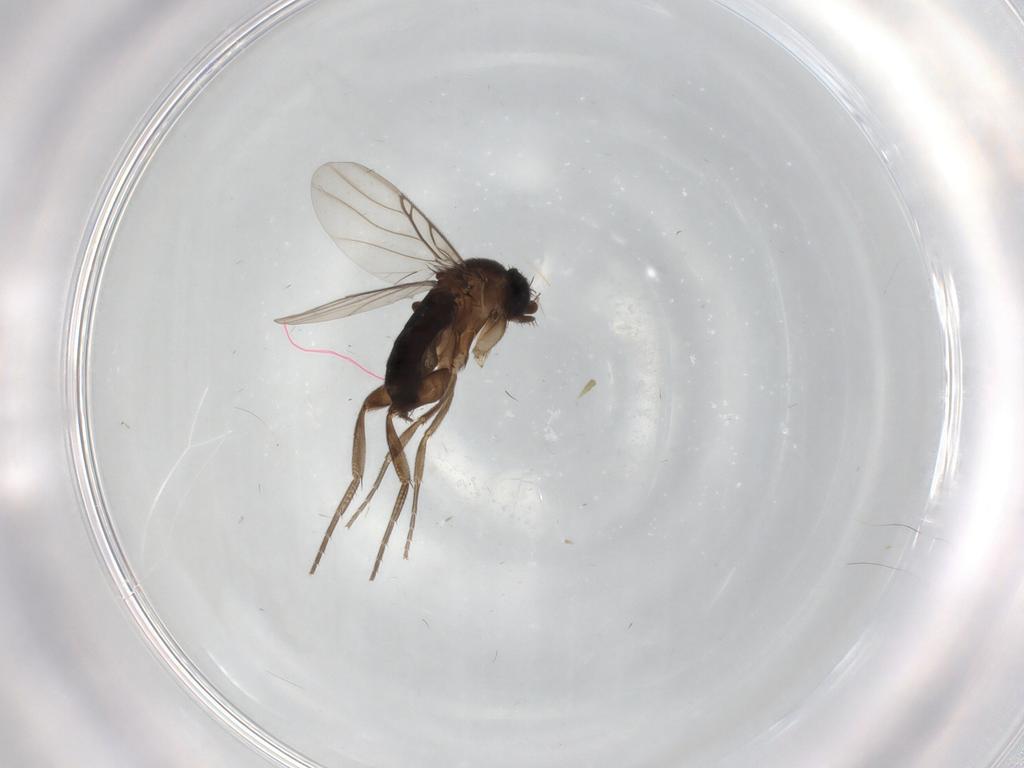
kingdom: Animalia
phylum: Arthropoda
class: Insecta
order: Diptera
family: Phoridae
